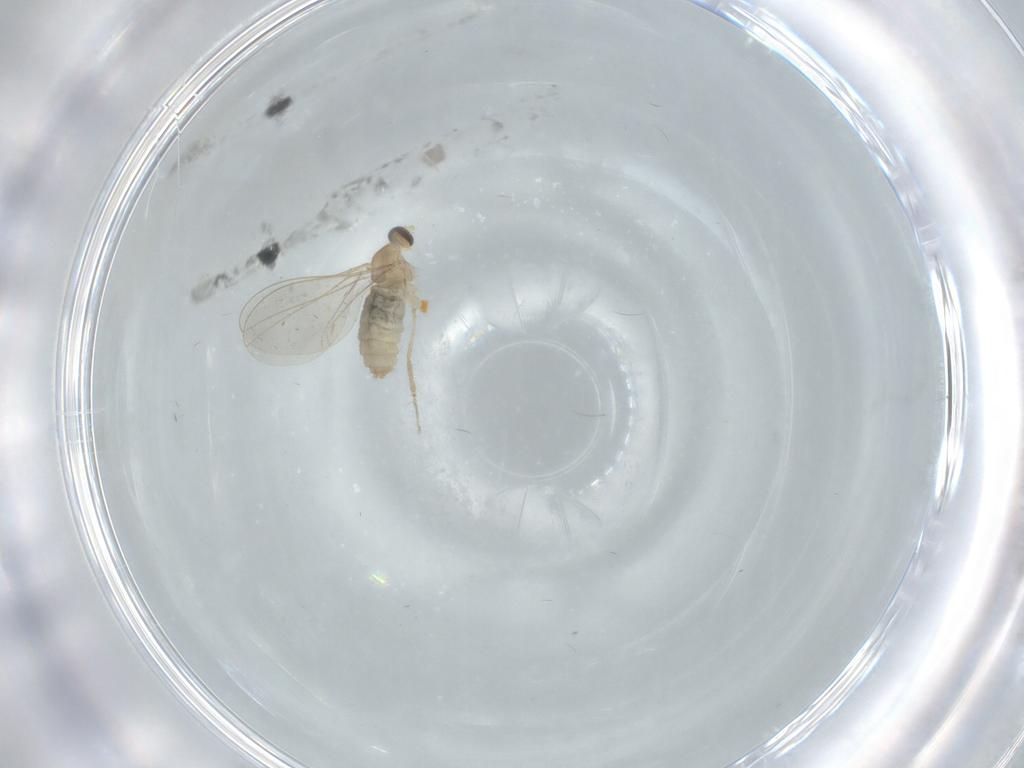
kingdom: Animalia
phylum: Arthropoda
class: Insecta
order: Diptera
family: Cecidomyiidae
